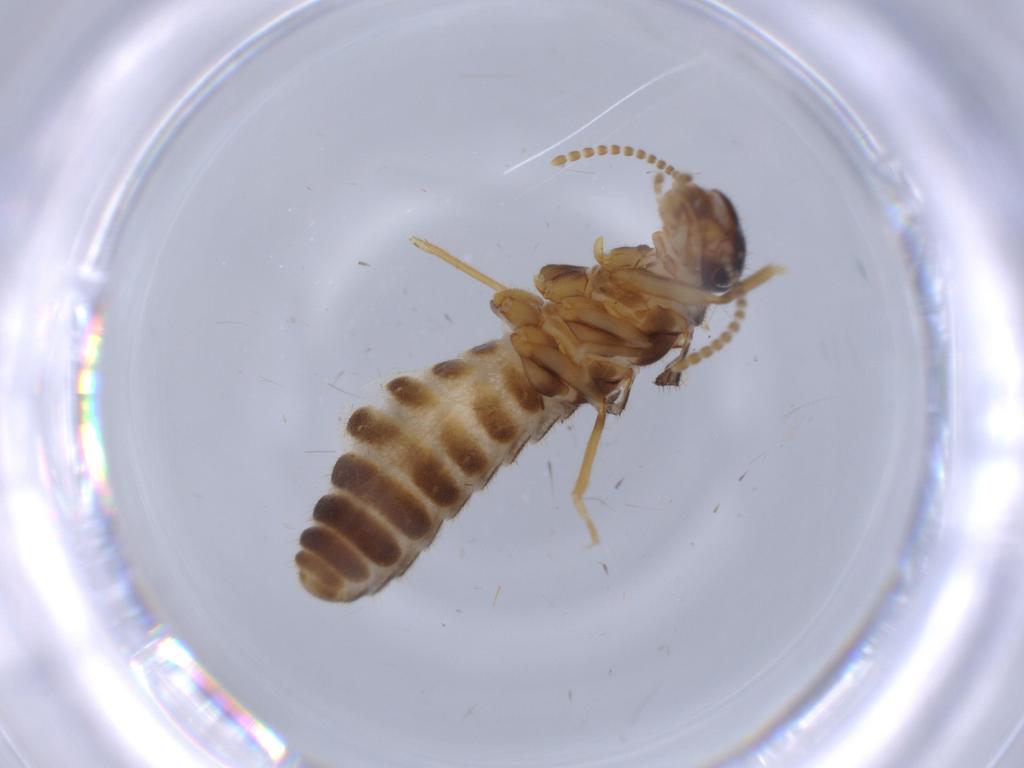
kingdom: Animalia
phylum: Arthropoda
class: Insecta
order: Blattodea
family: Termitidae
